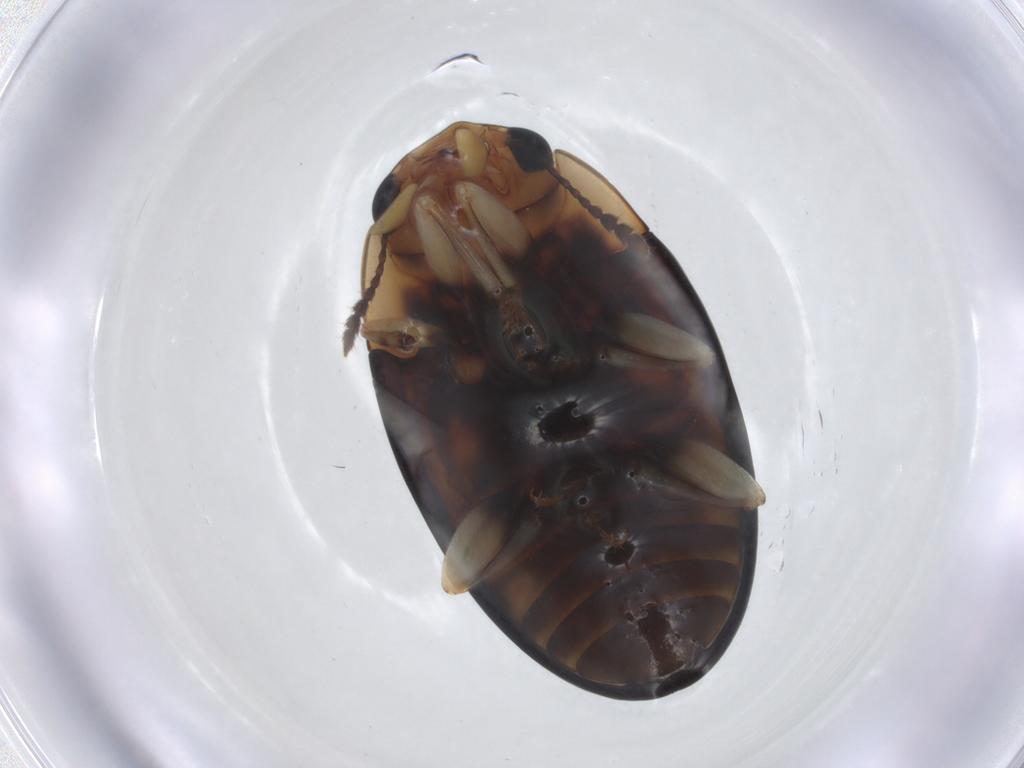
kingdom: Animalia
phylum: Arthropoda
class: Insecta
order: Coleoptera
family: Erotylidae
